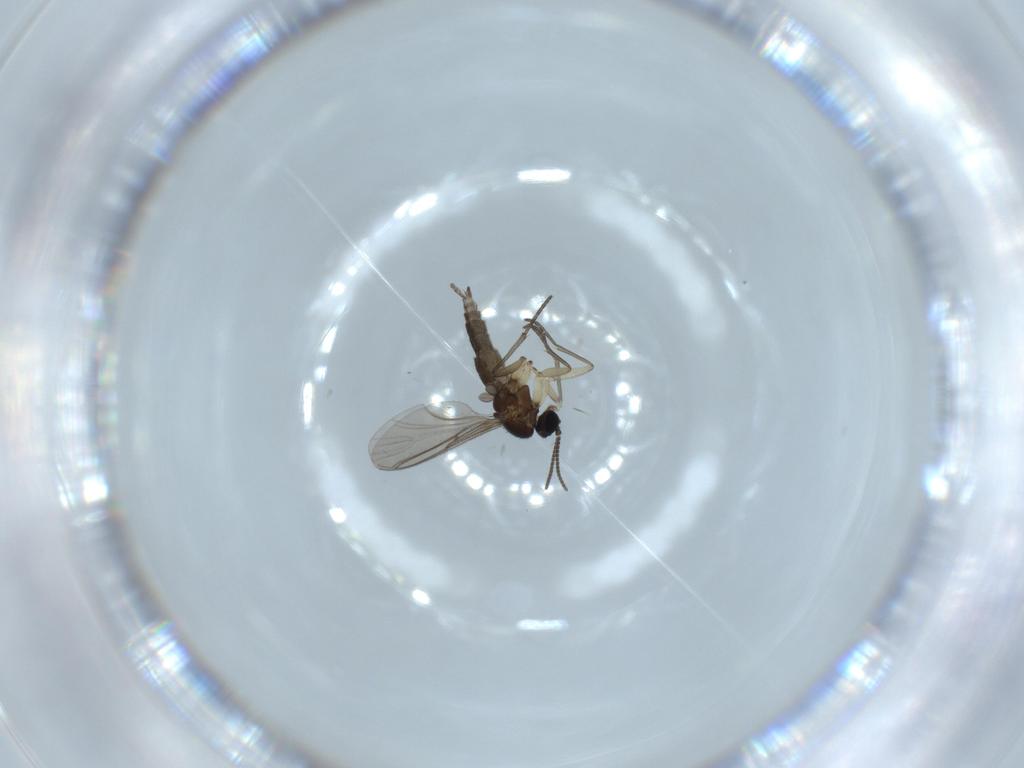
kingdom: Animalia
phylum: Arthropoda
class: Insecta
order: Diptera
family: Sciaridae
